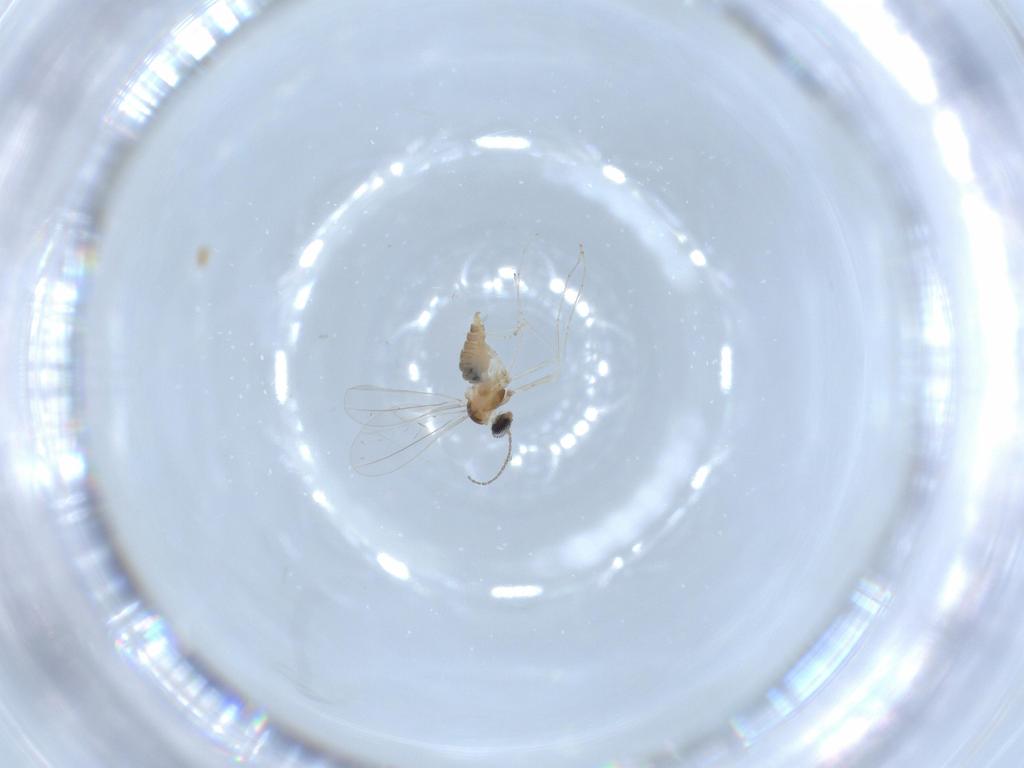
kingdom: Animalia
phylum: Arthropoda
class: Insecta
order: Diptera
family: Cecidomyiidae
